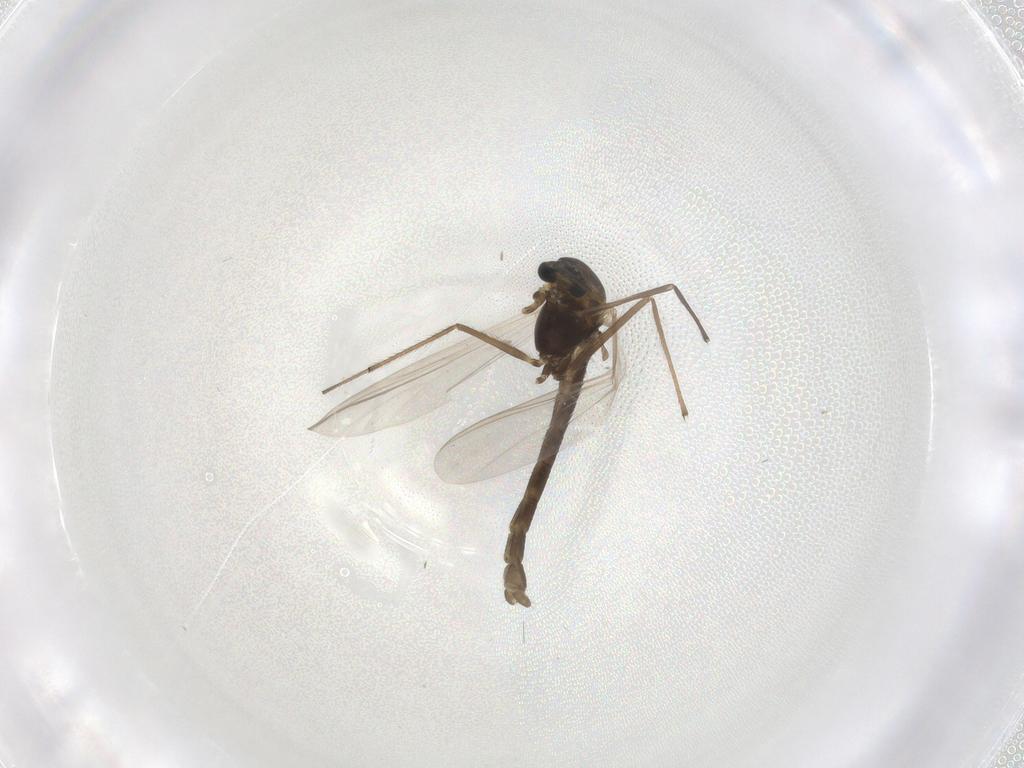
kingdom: Animalia
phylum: Arthropoda
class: Insecta
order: Diptera
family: Chironomidae
